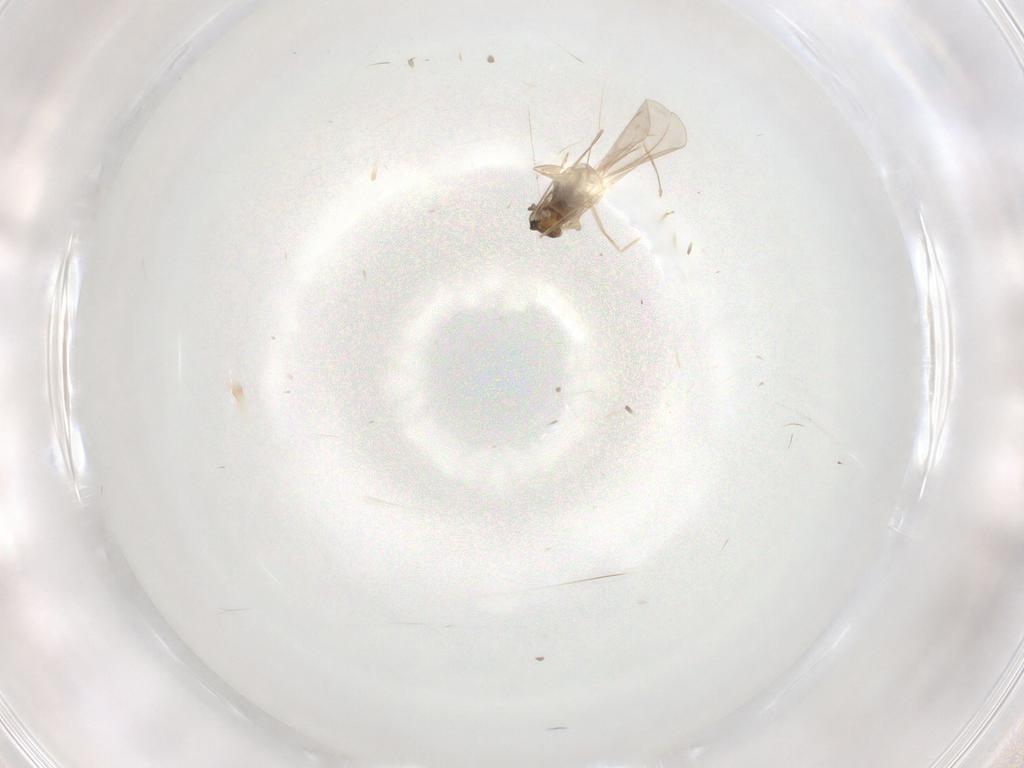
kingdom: Animalia
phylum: Arthropoda
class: Insecta
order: Diptera
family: Cecidomyiidae
